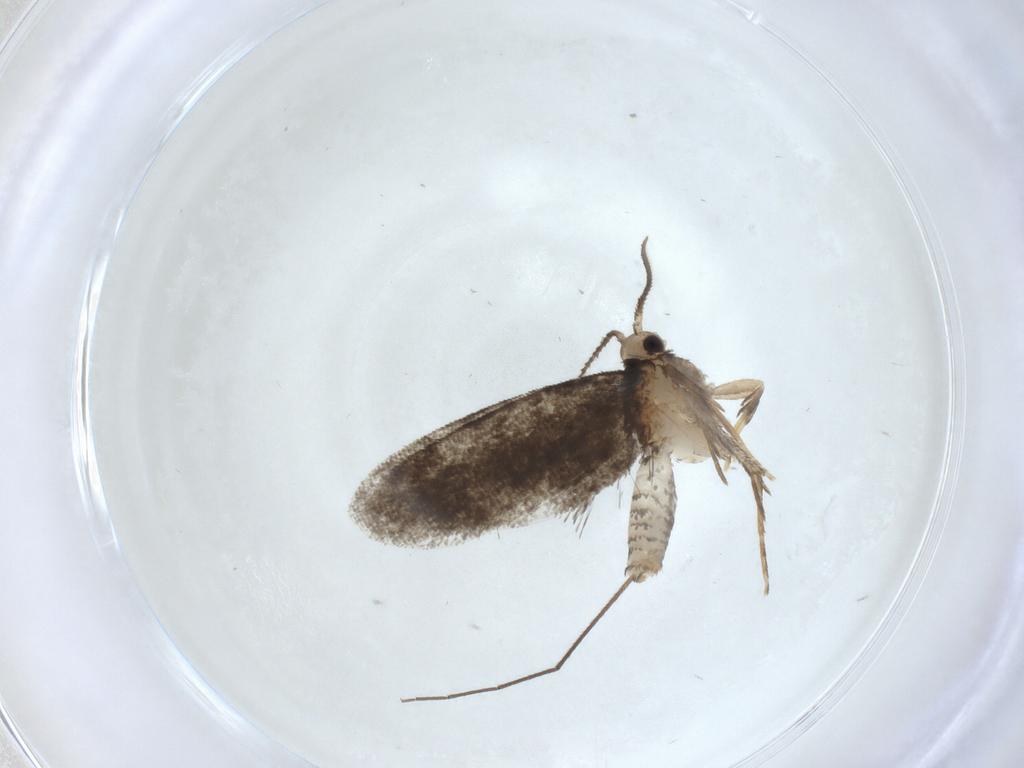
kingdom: Animalia
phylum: Arthropoda
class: Insecta
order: Lepidoptera
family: Psychidae
